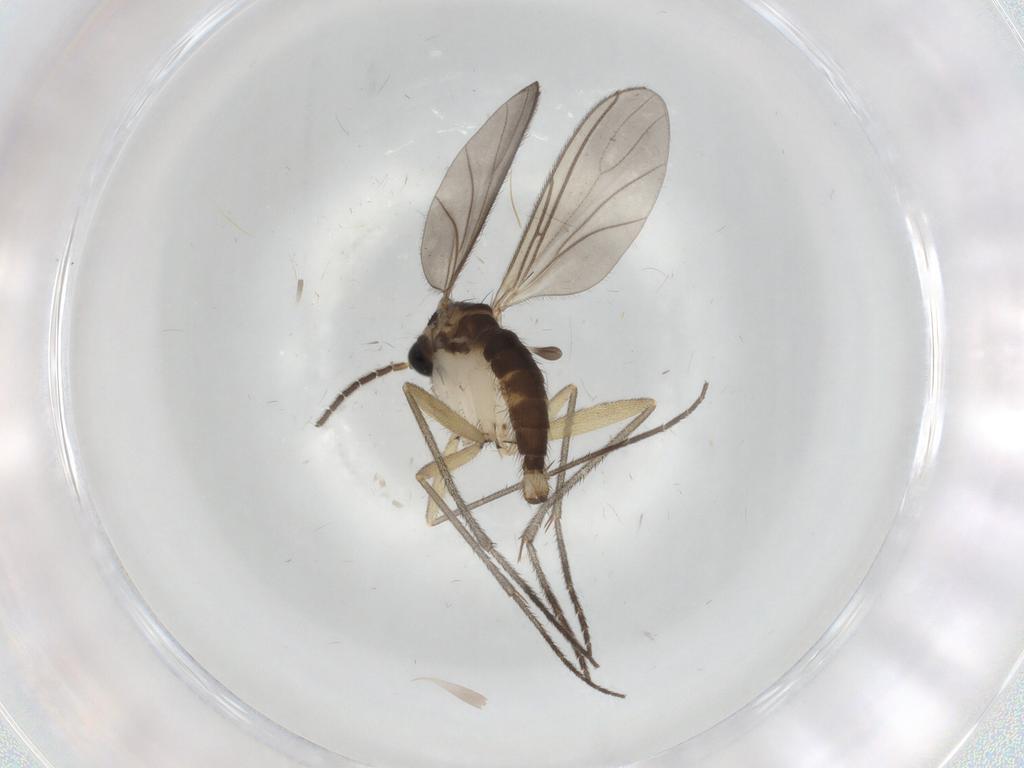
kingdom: Animalia
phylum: Arthropoda
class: Insecta
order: Diptera
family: Sciaridae
